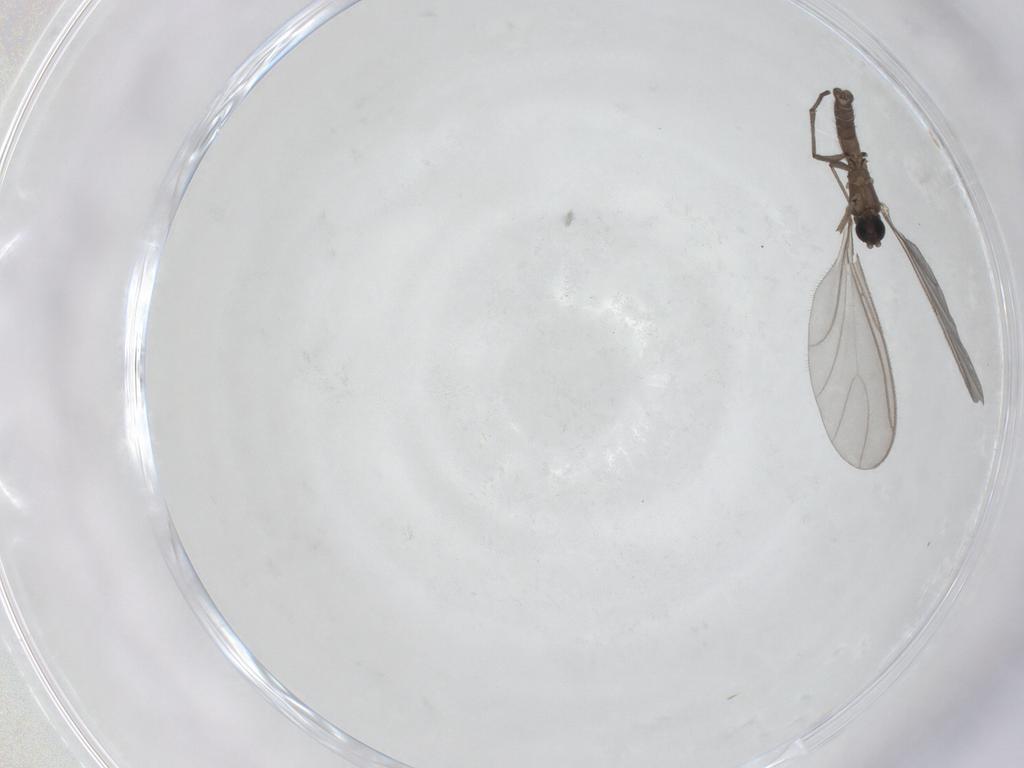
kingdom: Animalia
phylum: Arthropoda
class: Insecta
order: Diptera
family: Sciaridae
